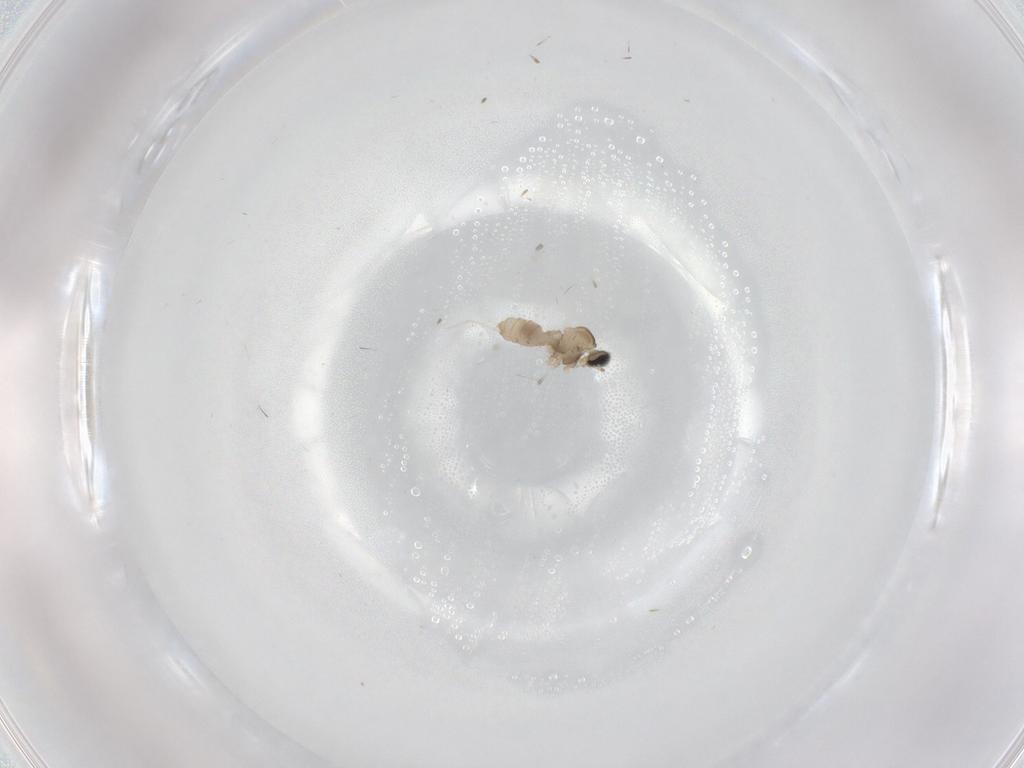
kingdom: Animalia
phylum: Arthropoda
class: Insecta
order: Diptera
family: Cecidomyiidae
